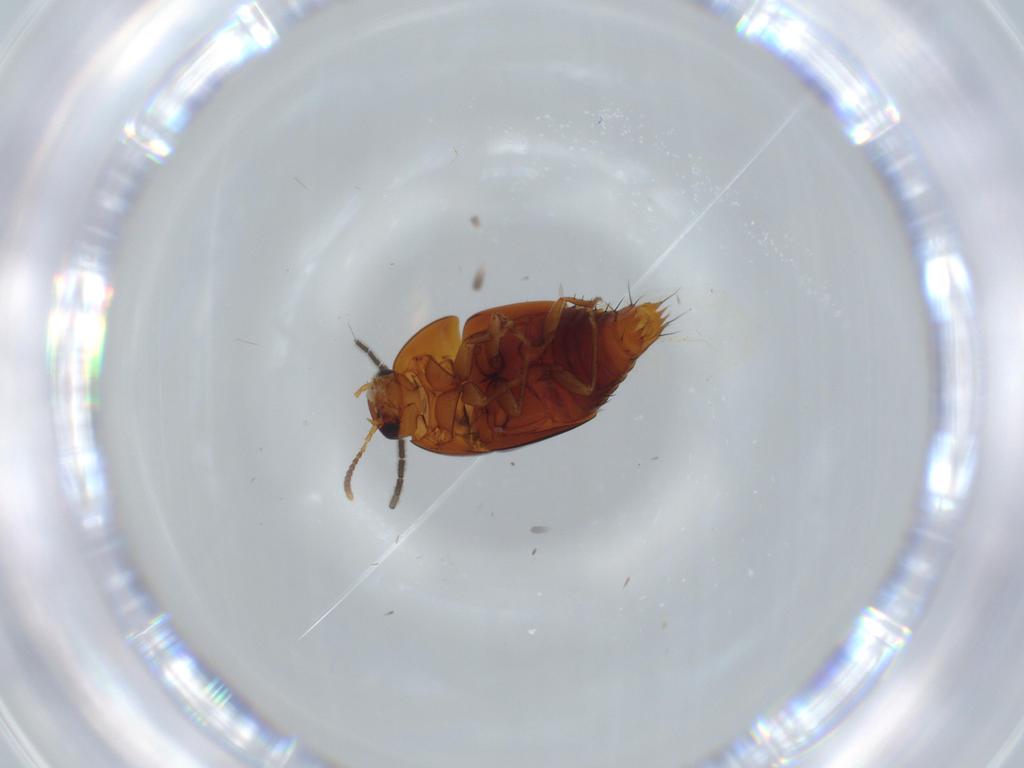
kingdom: Animalia
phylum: Arthropoda
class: Insecta
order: Coleoptera
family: Staphylinidae
